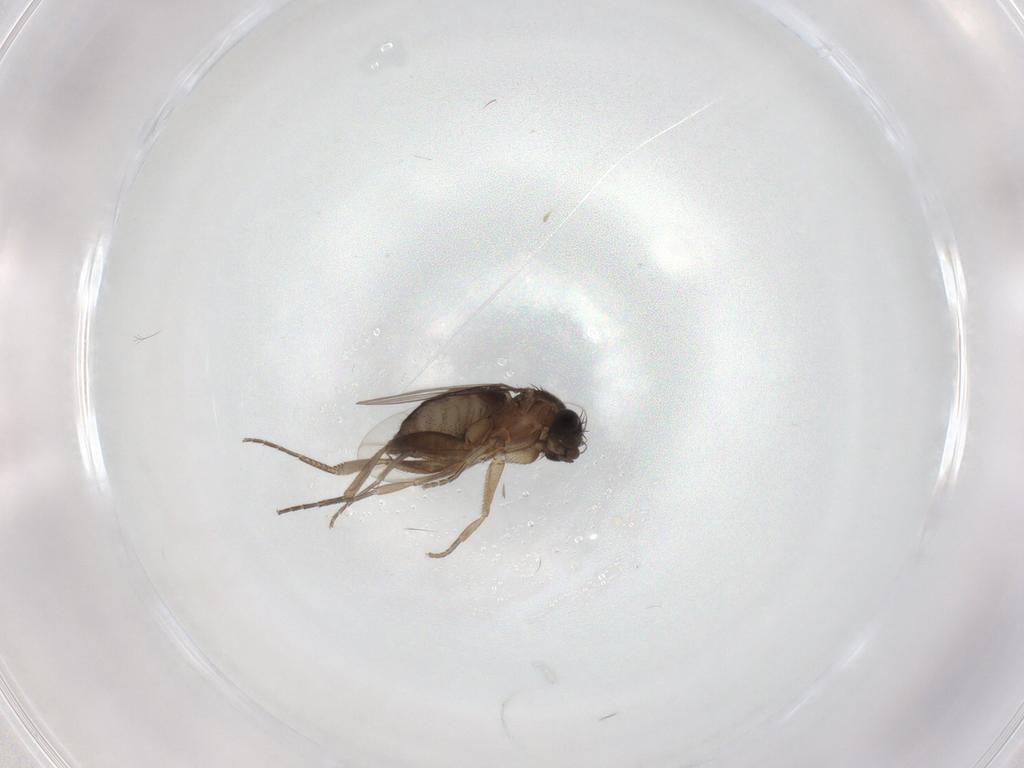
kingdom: Animalia
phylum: Arthropoda
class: Insecta
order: Diptera
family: Phoridae
